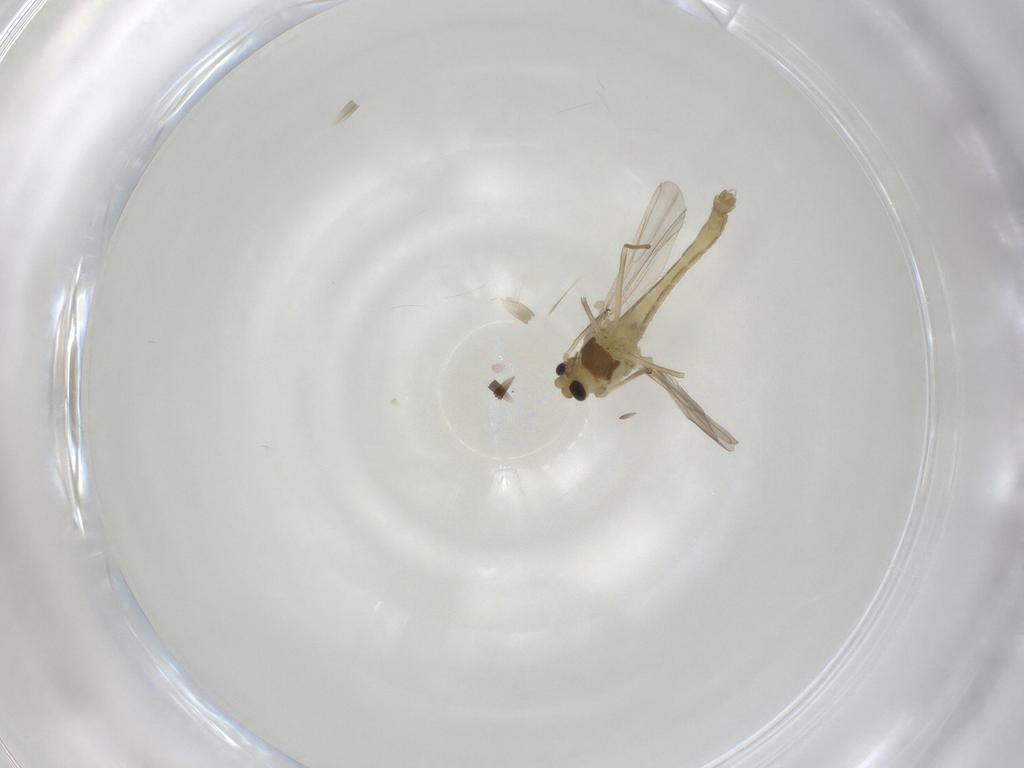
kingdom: Animalia
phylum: Arthropoda
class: Insecta
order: Diptera
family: Chironomidae
